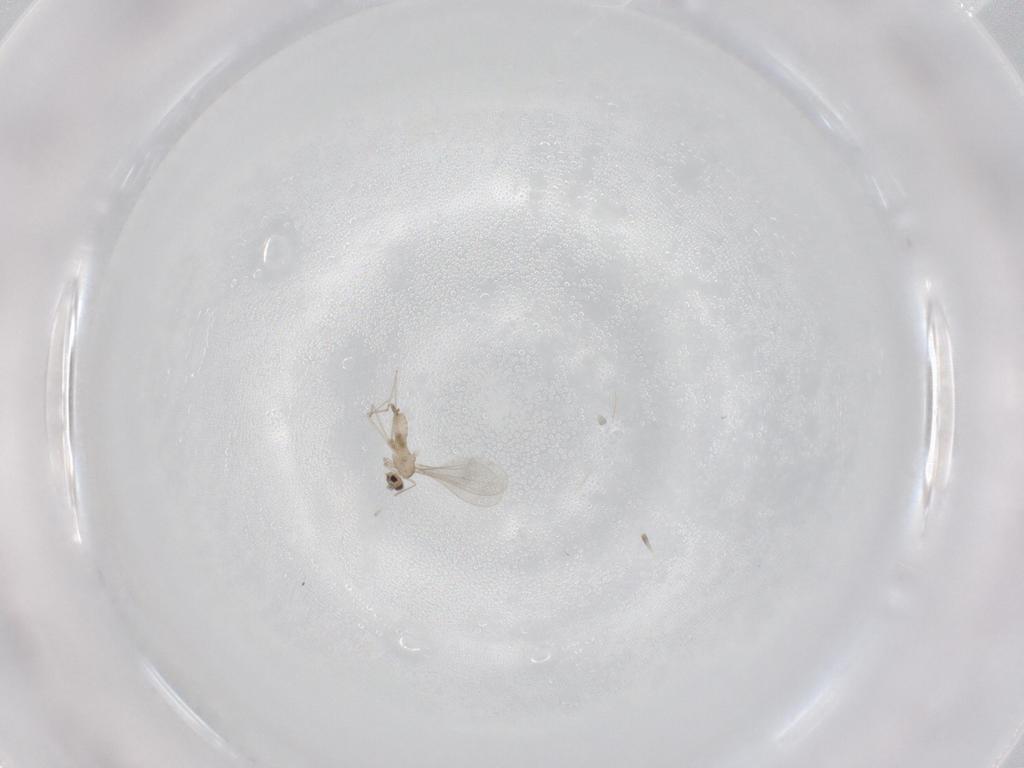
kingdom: Animalia
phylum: Arthropoda
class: Insecta
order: Diptera
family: Cecidomyiidae
